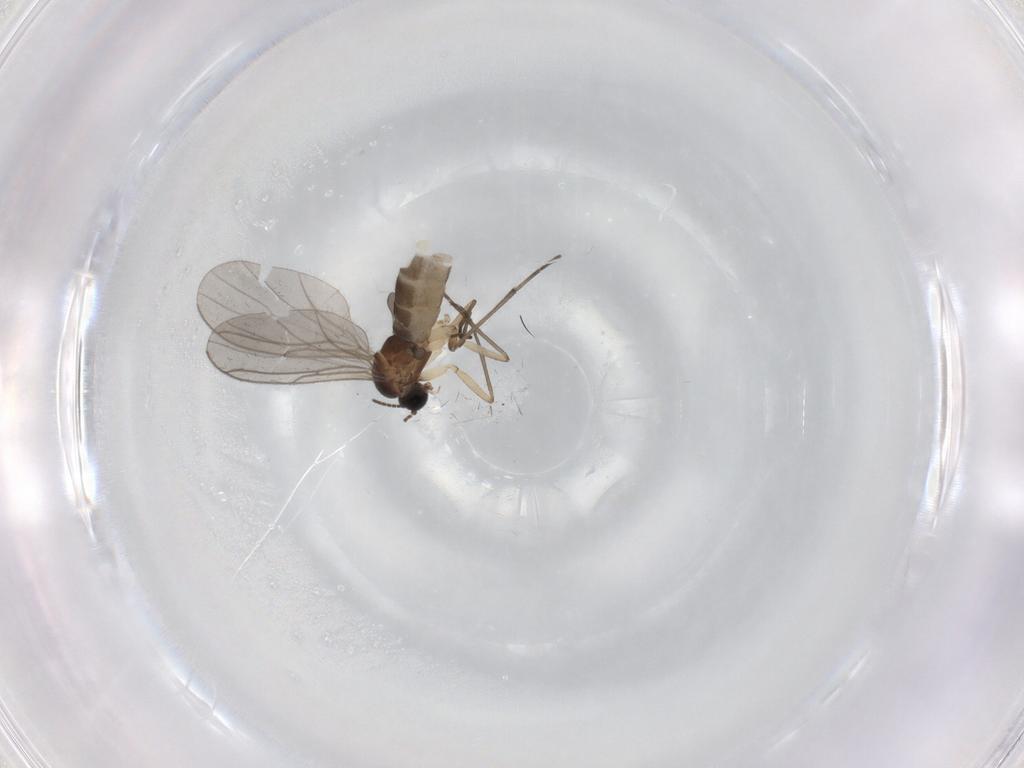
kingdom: Animalia
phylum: Arthropoda
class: Insecta
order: Diptera
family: Sciaridae
